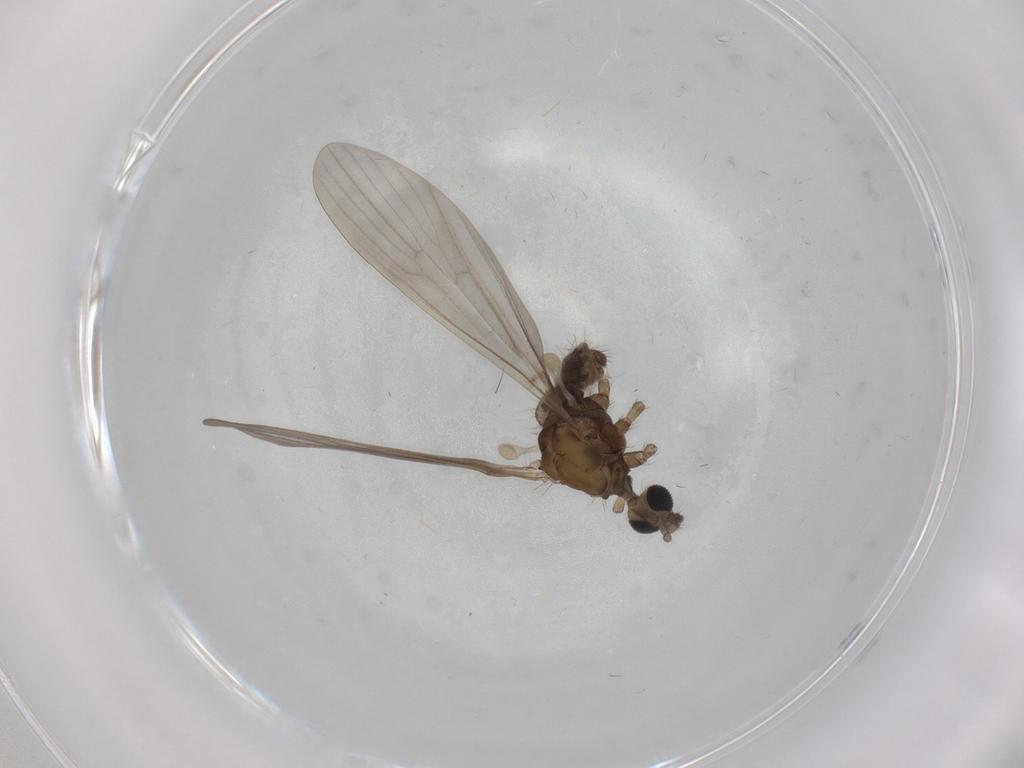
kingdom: Animalia
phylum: Arthropoda
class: Insecta
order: Diptera
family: Limoniidae
